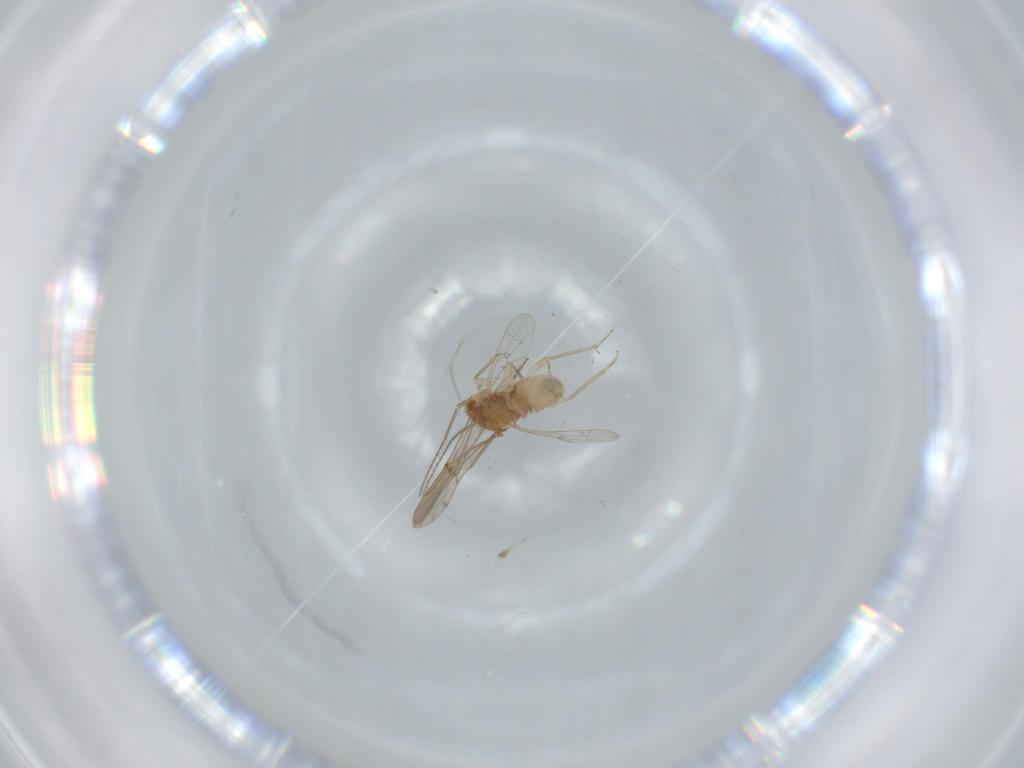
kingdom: Animalia
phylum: Arthropoda
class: Insecta
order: Psocodea
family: Ectopsocidae
